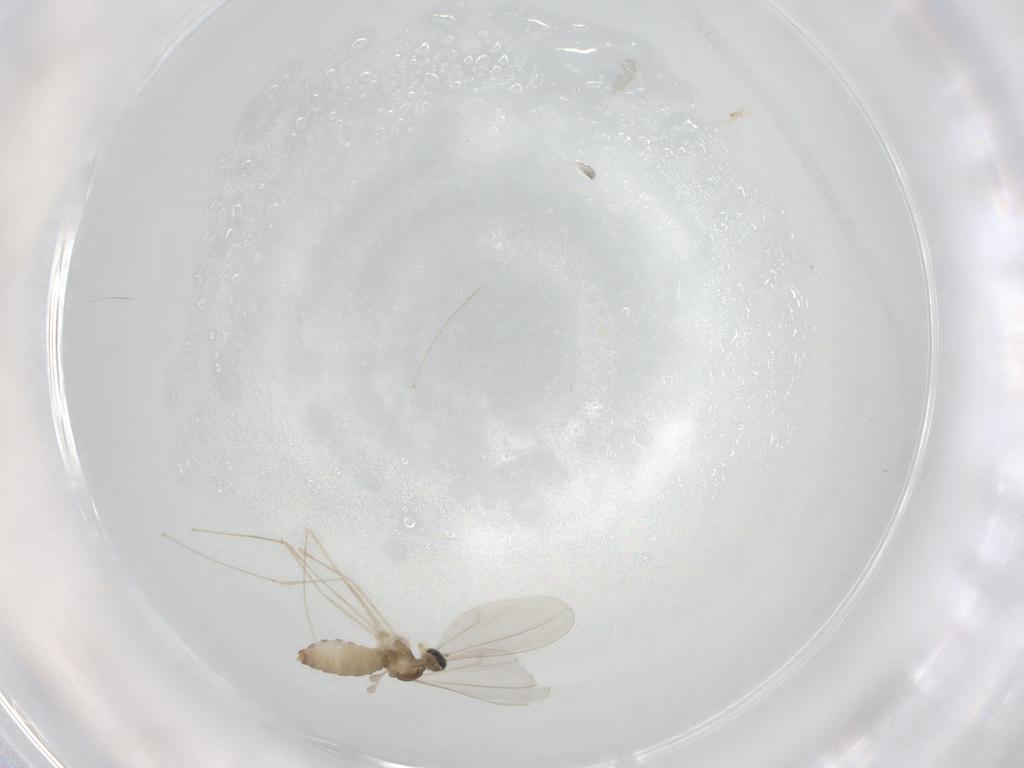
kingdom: Animalia
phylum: Arthropoda
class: Insecta
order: Diptera
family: Cecidomyiidae
